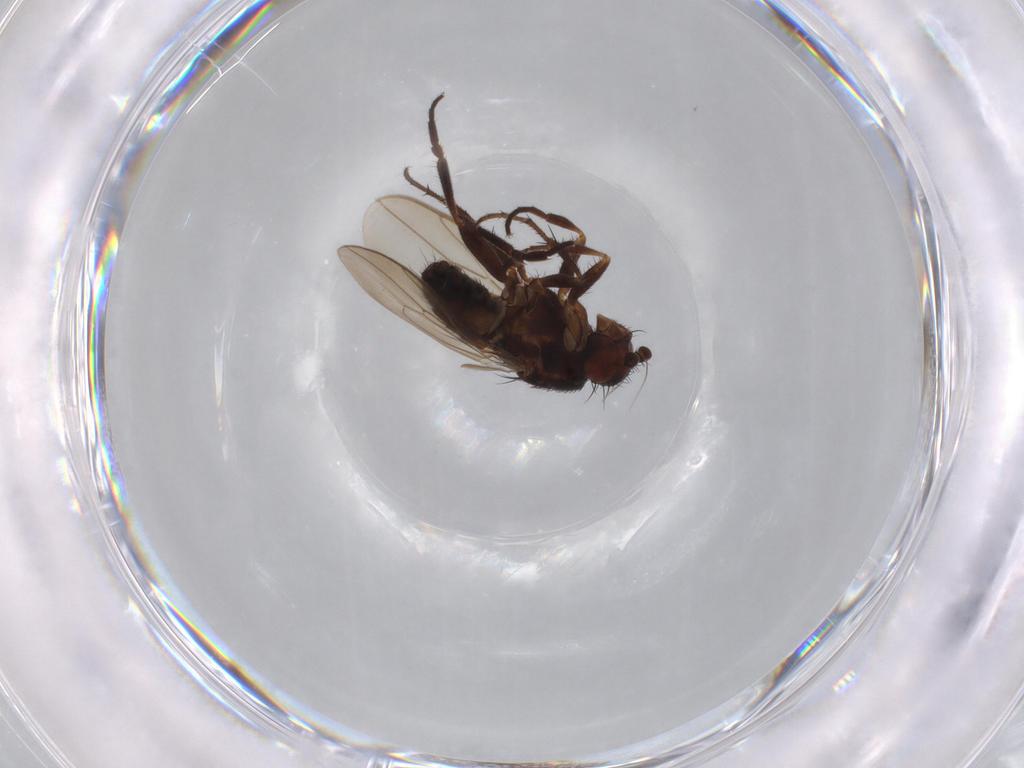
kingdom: Animalia
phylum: Arthropoda
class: Insecta
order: Diptera
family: Sphaeroceridae
